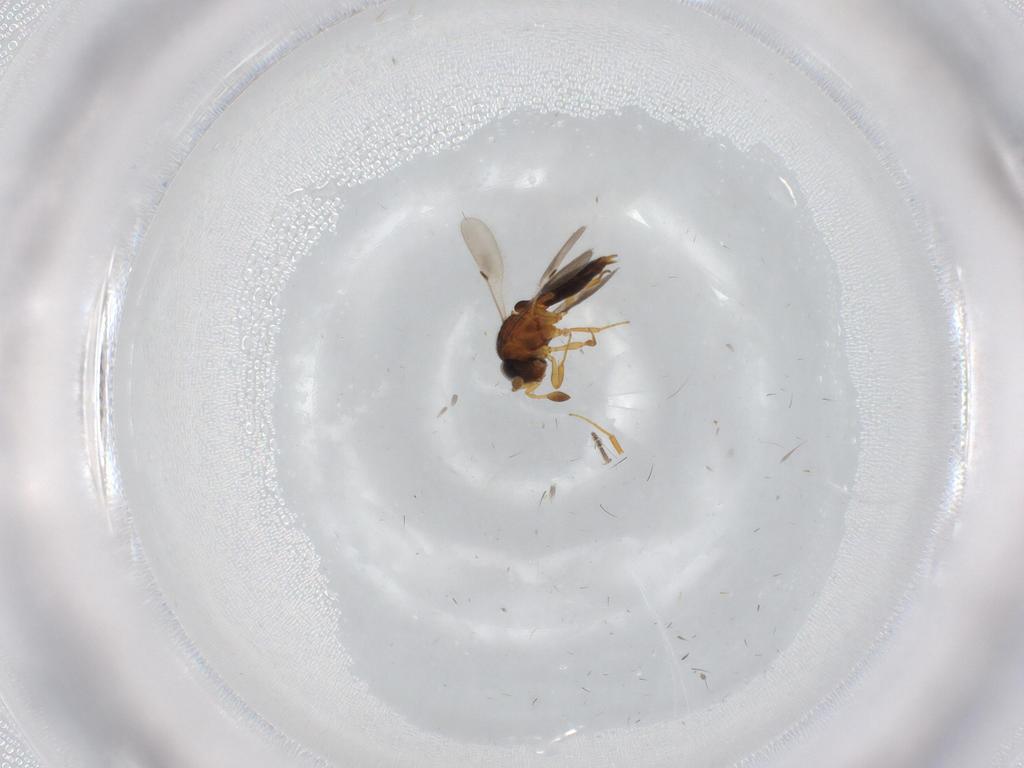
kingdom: Animalia
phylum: Arthropoda
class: Insecta
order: Hymenoptera
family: Scelionidae
